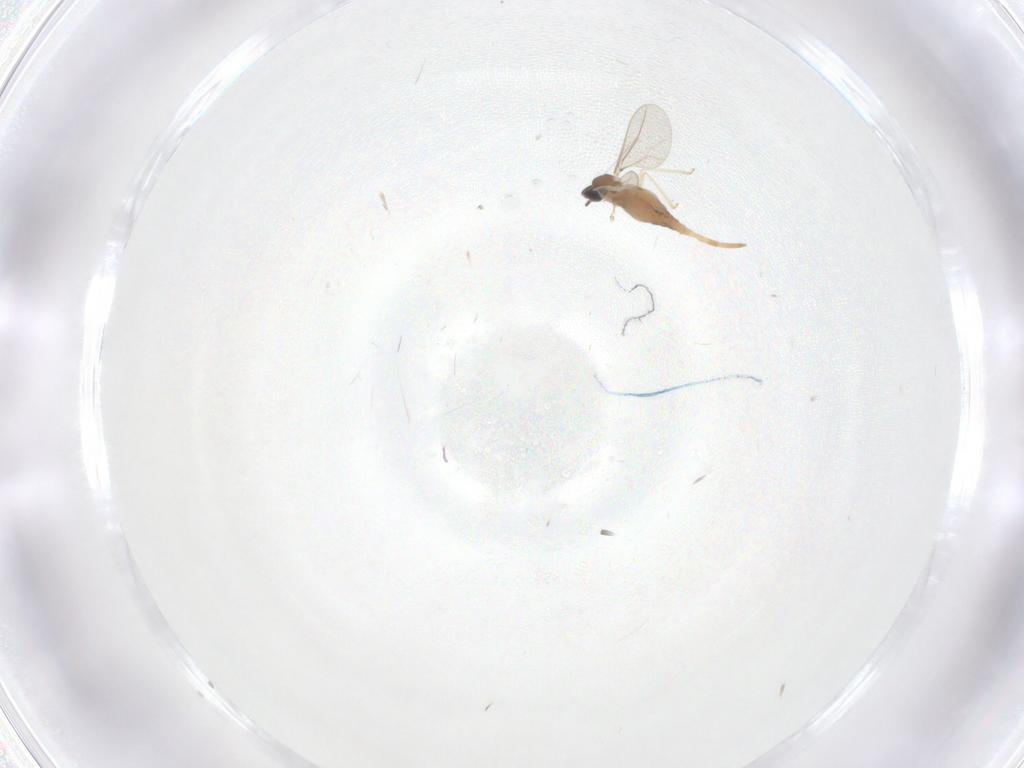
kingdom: Animalia
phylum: Arthropoda
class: Insecta
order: Diptera
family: Cecidomyiidae
